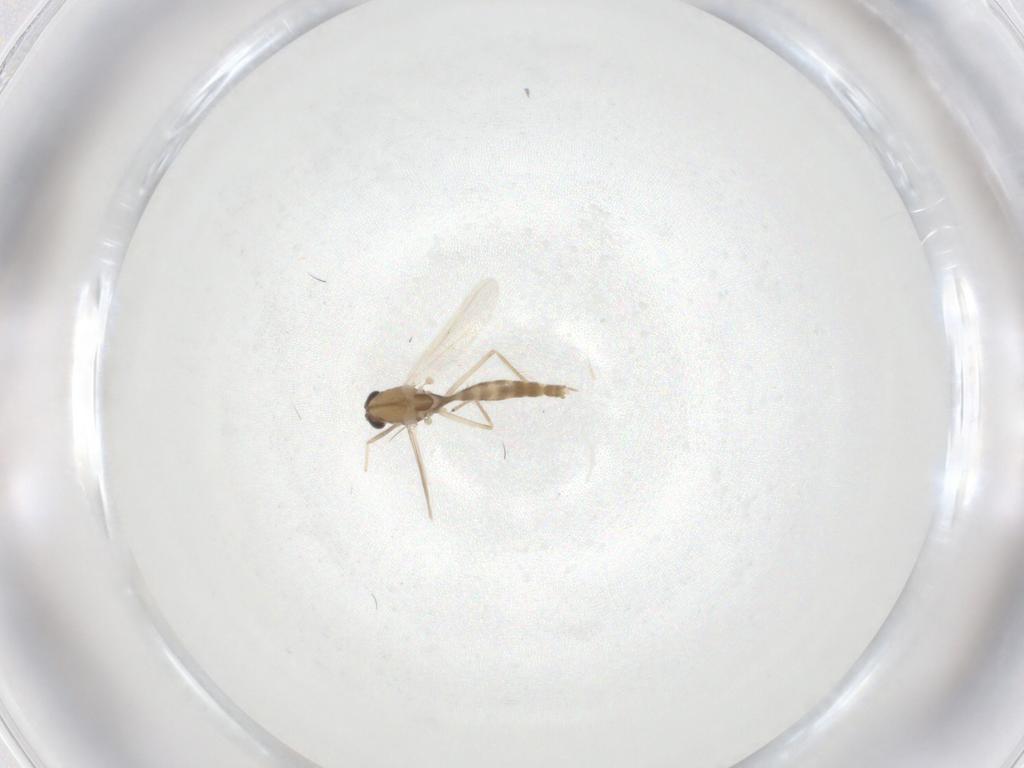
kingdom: Animalia
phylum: Arthropoda
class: Insecta
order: Diptera
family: Chironomidae
